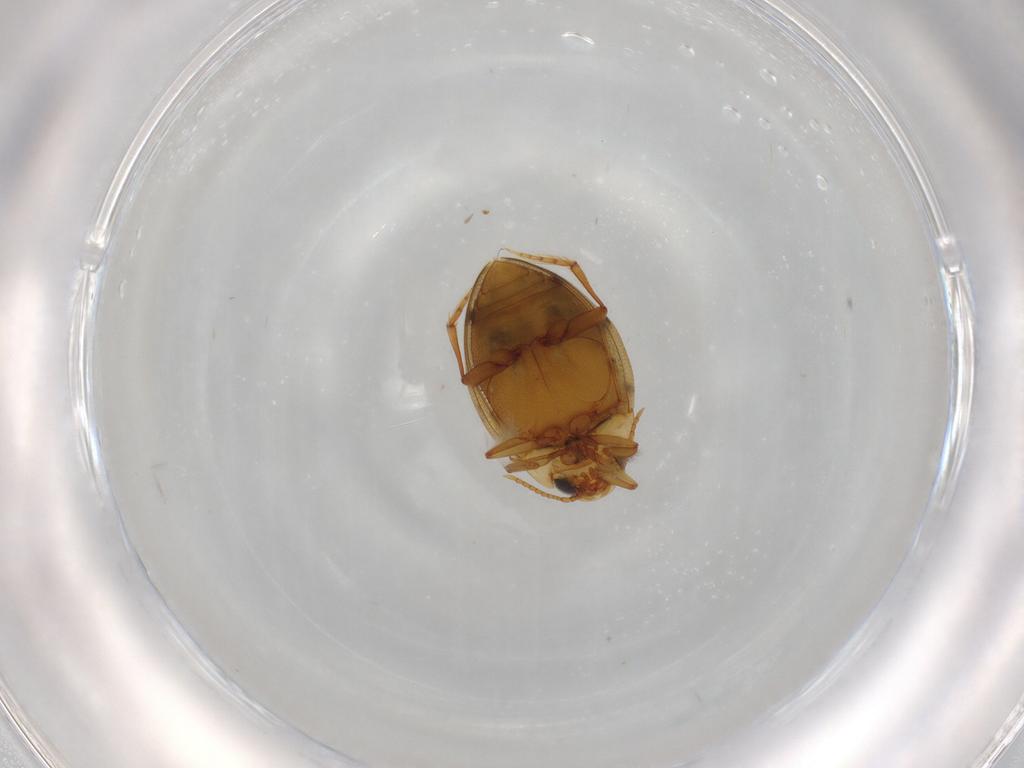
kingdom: Animalia
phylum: Arthropoda
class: Insecta
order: Coleoptera
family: Dytiscidae
